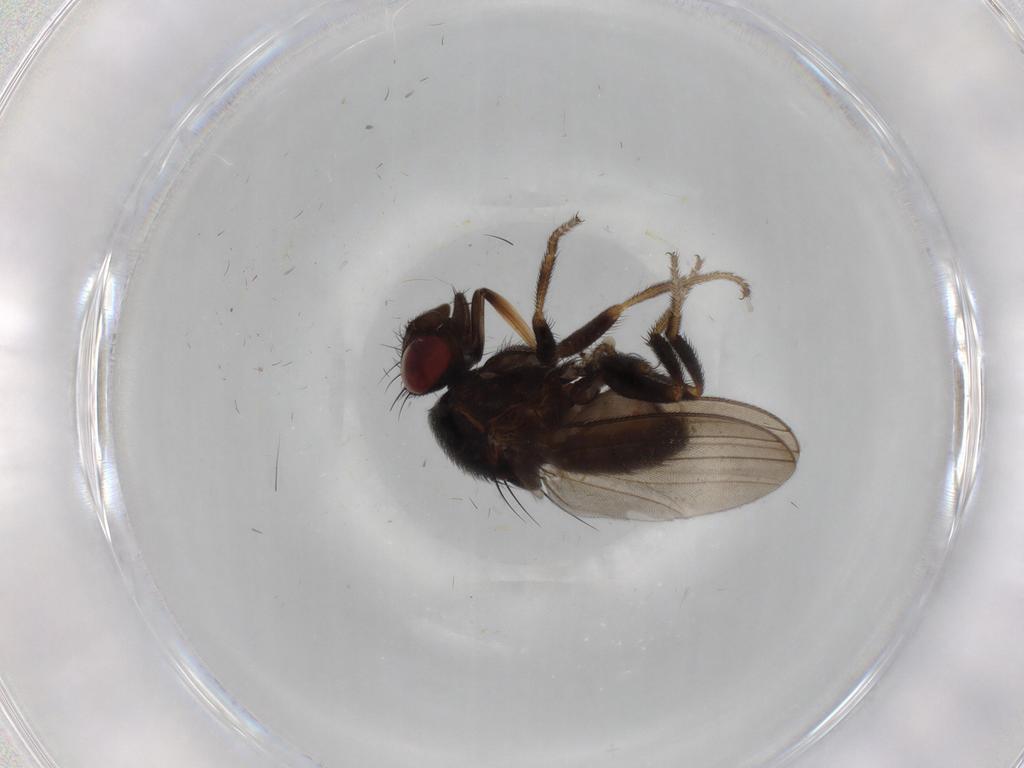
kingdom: Animalia
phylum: Arthropoda
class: Insecta
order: Diptera
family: Milichiidae
